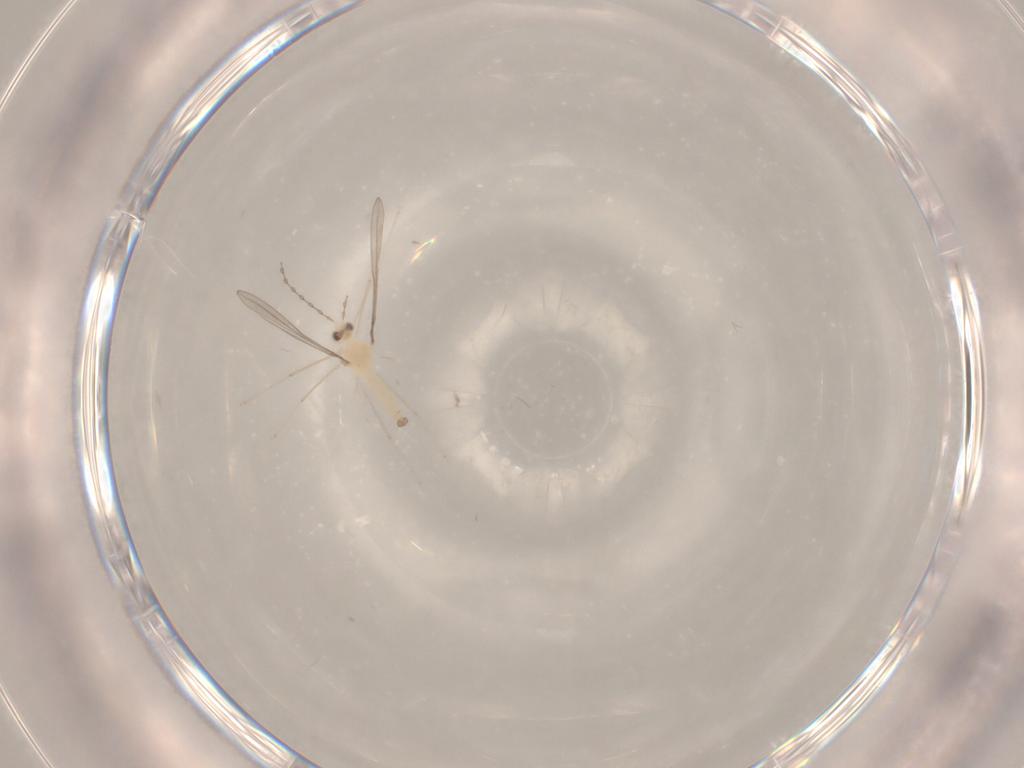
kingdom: Animalia
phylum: Arthropoda
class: Insecta
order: Diptera
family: Cecidomyiidae
